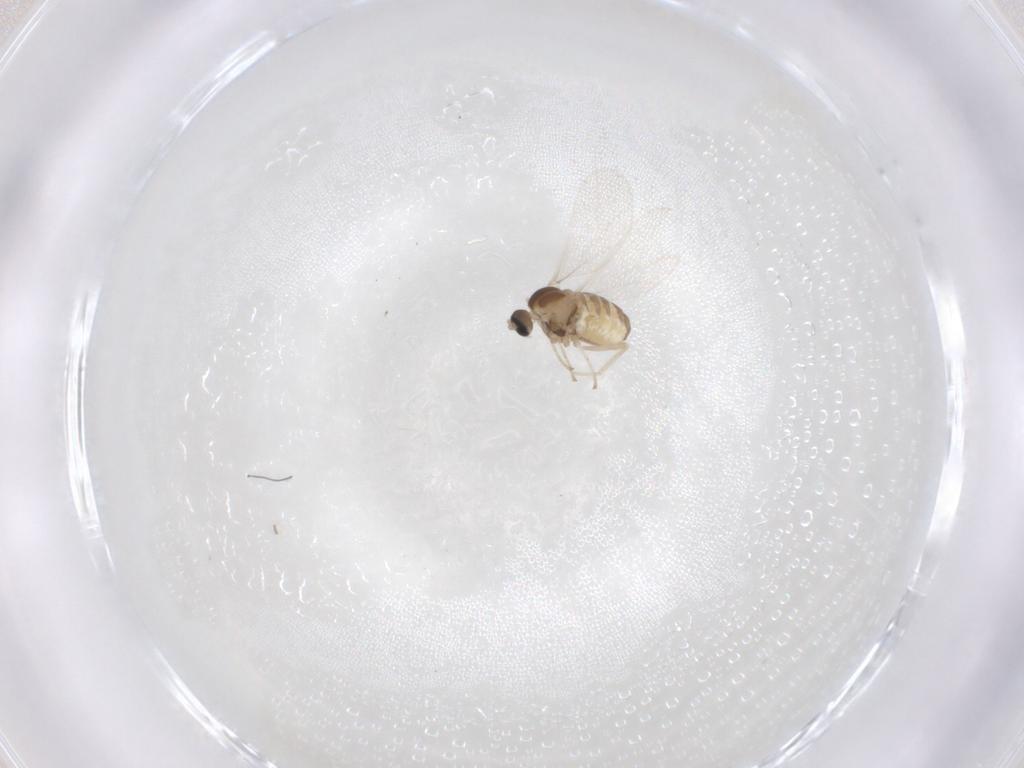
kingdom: Animalia
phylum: Arthropoda
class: Insecta
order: Diptera
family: Cecidomyiidae
